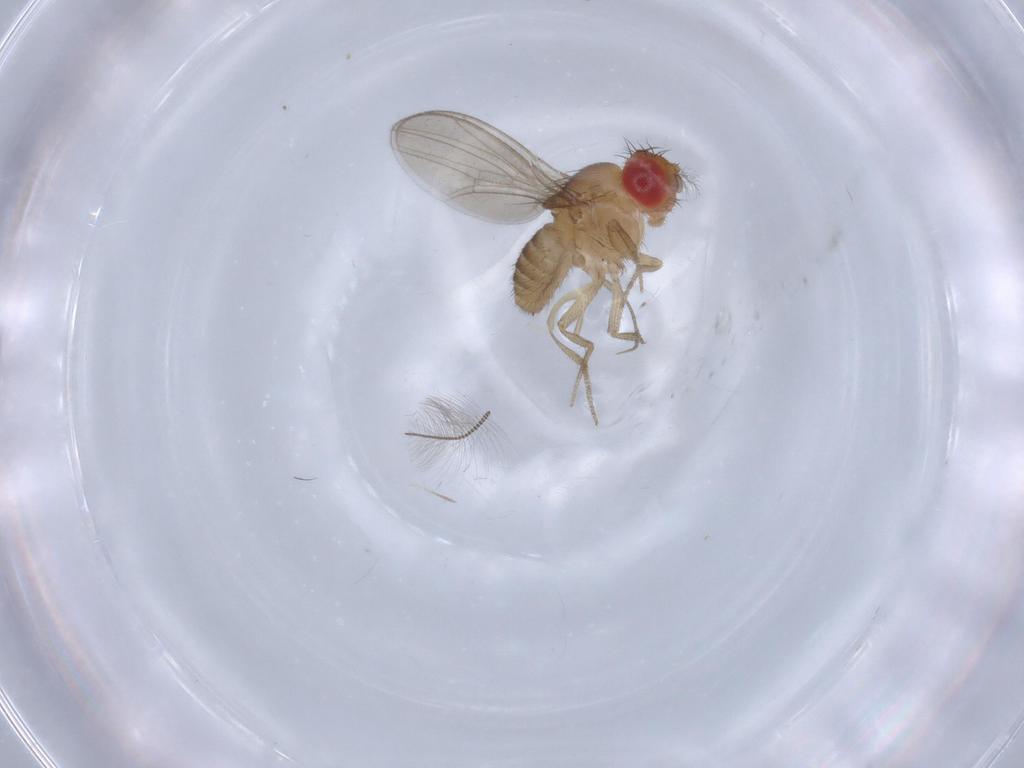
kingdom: Animalia
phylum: Arthropoda
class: Insecta
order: Diptera
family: Drosophilidae
